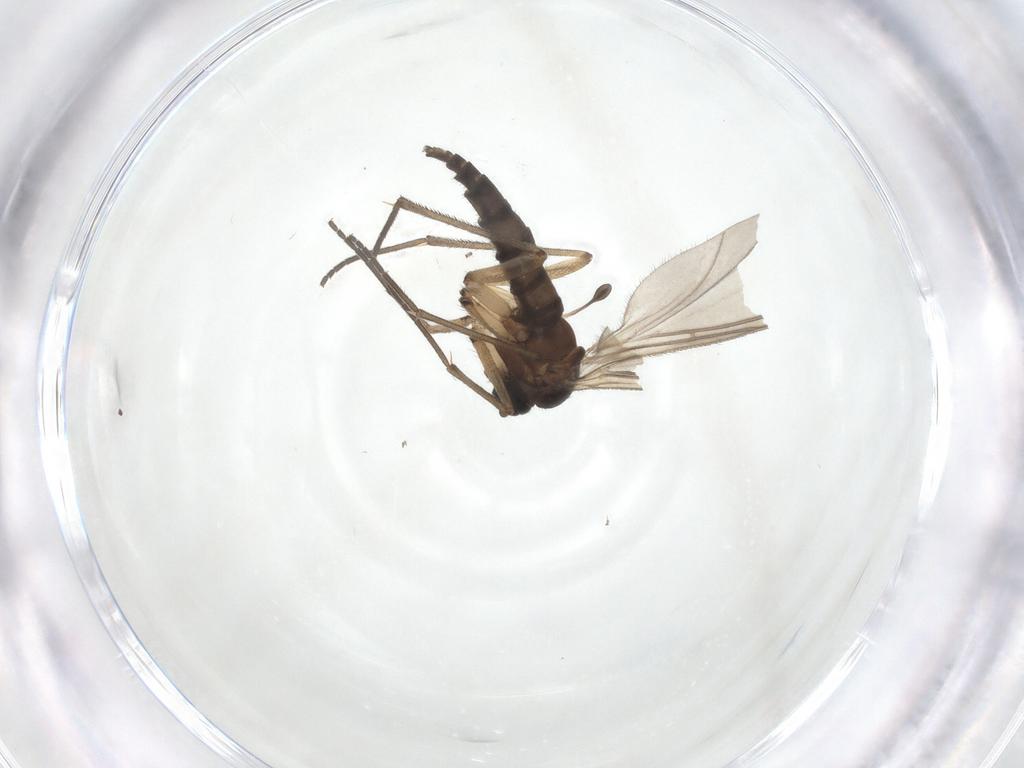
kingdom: Animalia
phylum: Arthropoda
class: Insecta
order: Diptera
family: Sciaridae
